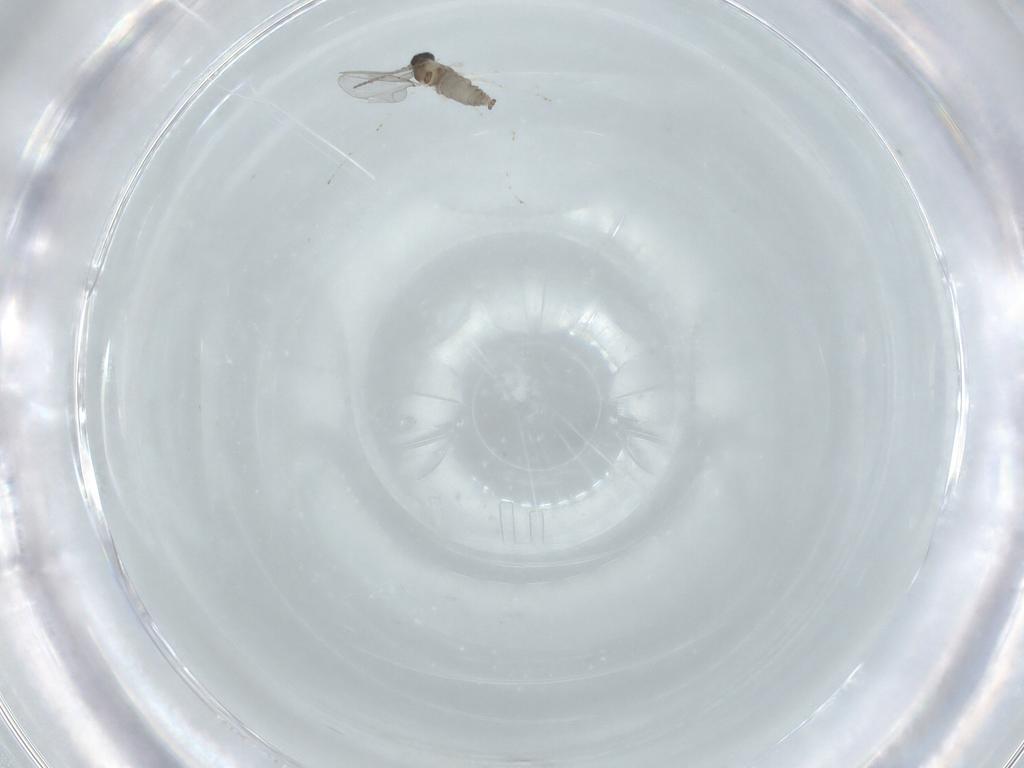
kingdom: Animalia
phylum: Arthropoda
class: Insecta
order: Diptera
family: Cecidomyiidae
